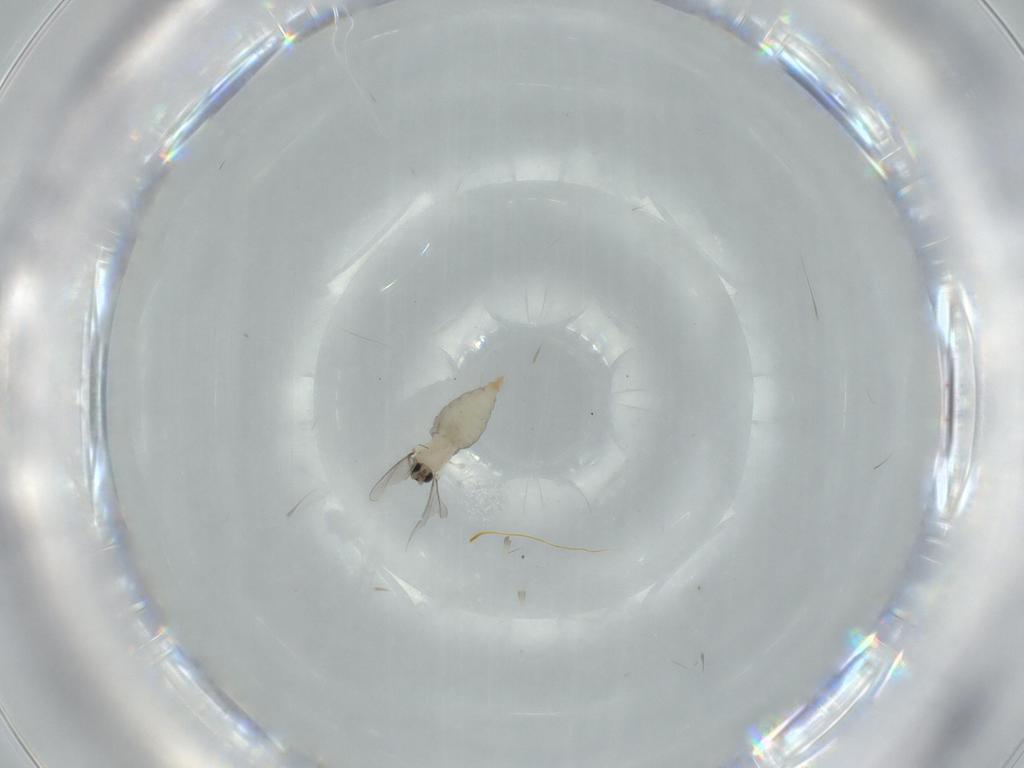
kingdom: Animalia
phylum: Arthropoda
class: Insecta
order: Diptera
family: Lauxaniidae
